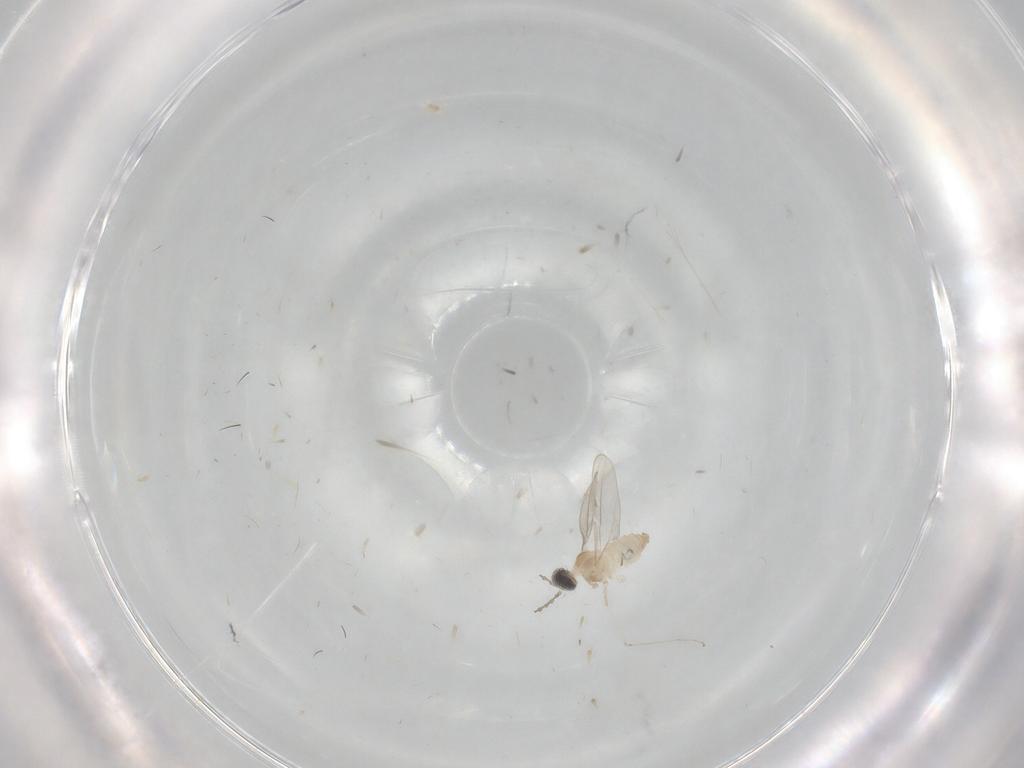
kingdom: Animalia
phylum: Arthropoda
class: Insecta
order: Diptera
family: Cecidomyiidae
